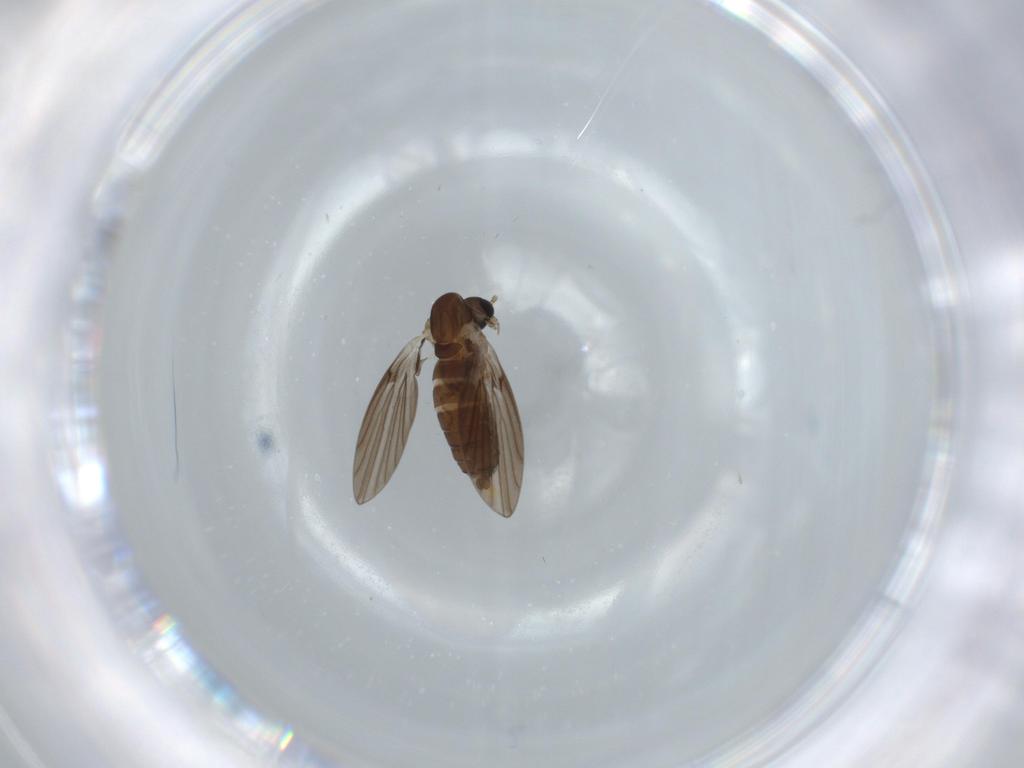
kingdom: Animalia
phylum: Arthropoda
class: Insecta
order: Diptera
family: Psychodidae
